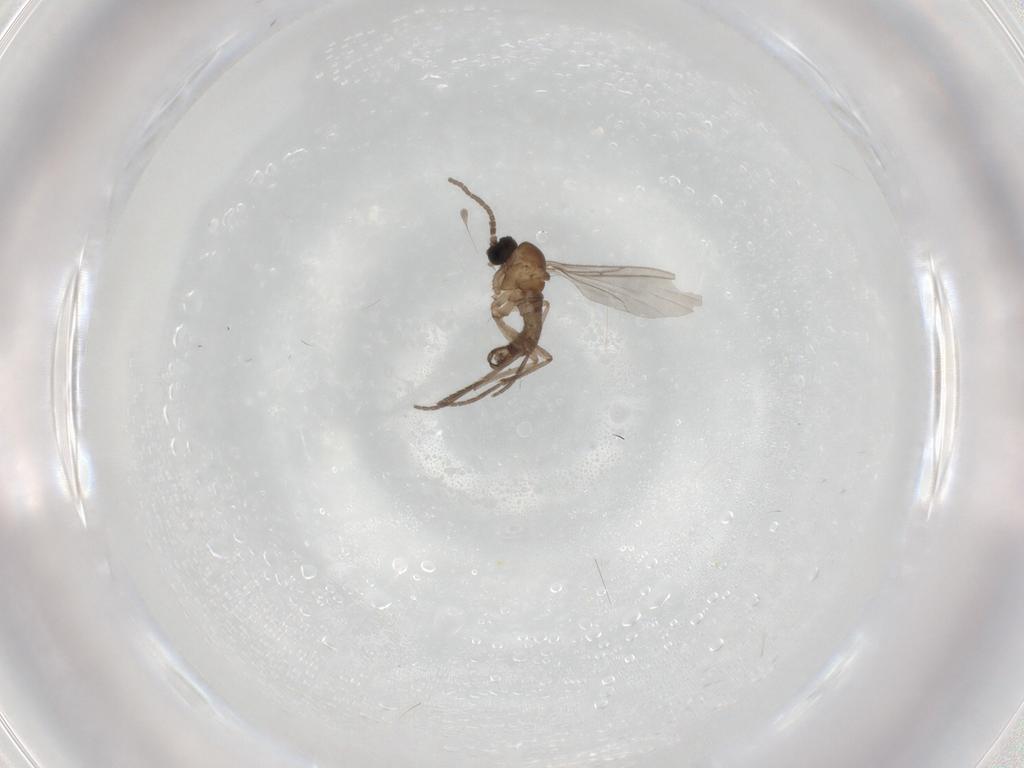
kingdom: Animalia
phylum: Arthropoda
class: Insecta
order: Diptera
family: Sciaridae
